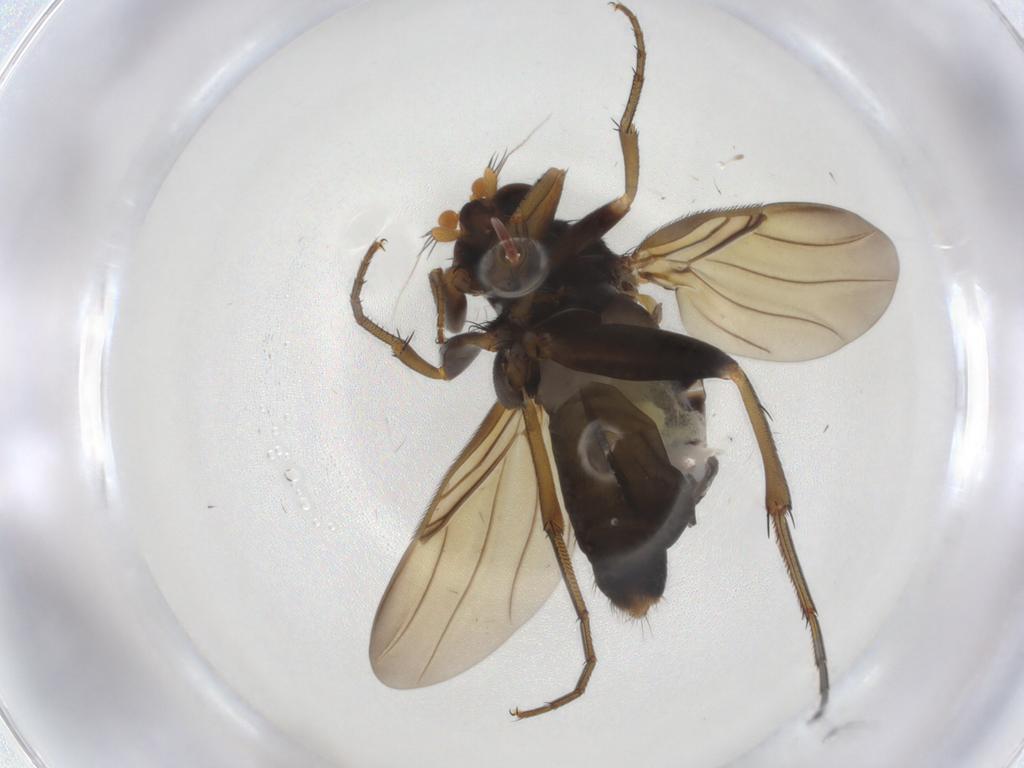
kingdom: Animalia
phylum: Arthropoda
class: Insecta
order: Diptera
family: Phoridae
